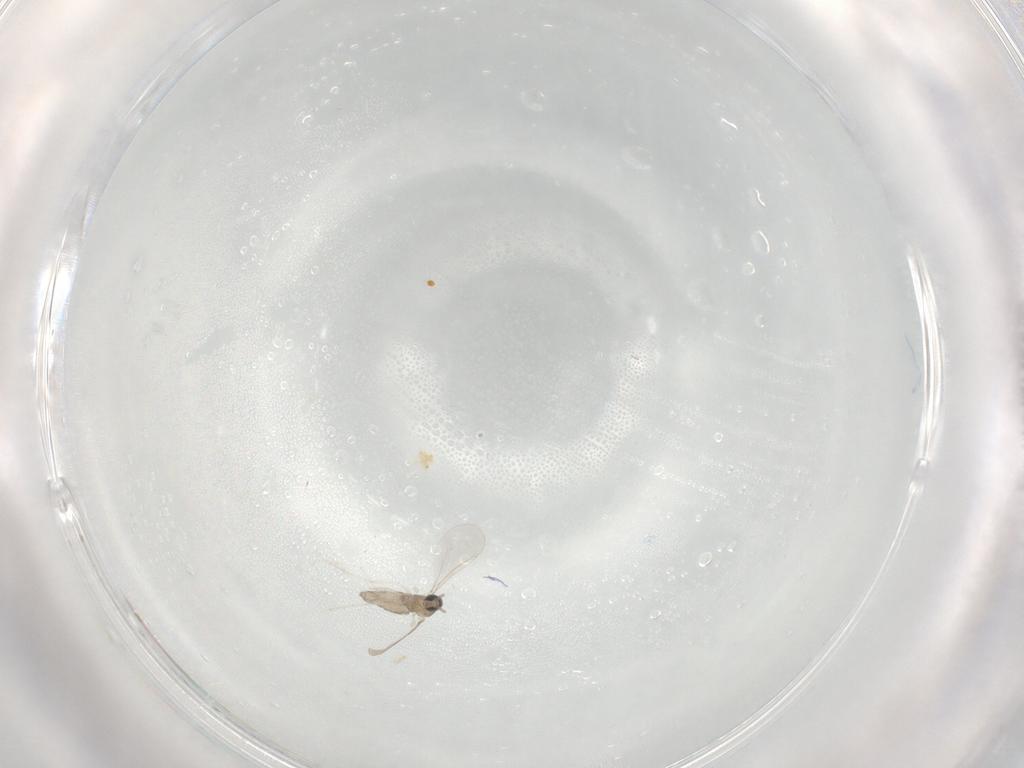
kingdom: Animalia
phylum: Arthropoda
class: Insecta
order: Diptera
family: Cecidomyiidae
